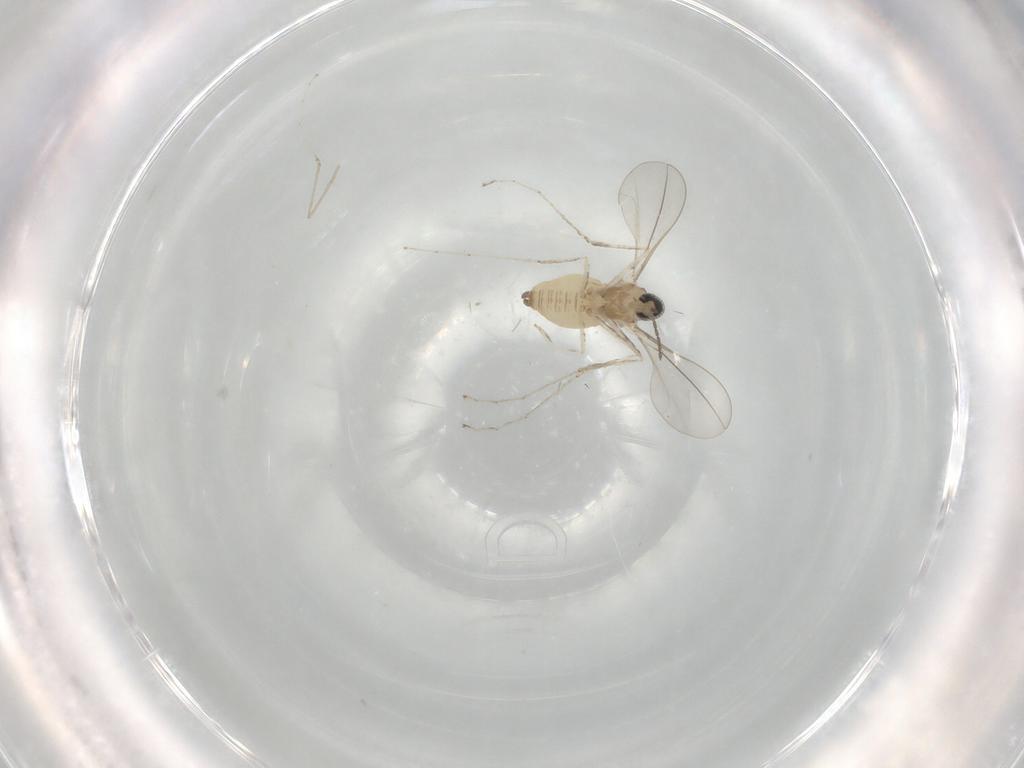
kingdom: Animalia
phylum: Arthropoda
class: Insecta
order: Diptera
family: Cecidomyiidae
